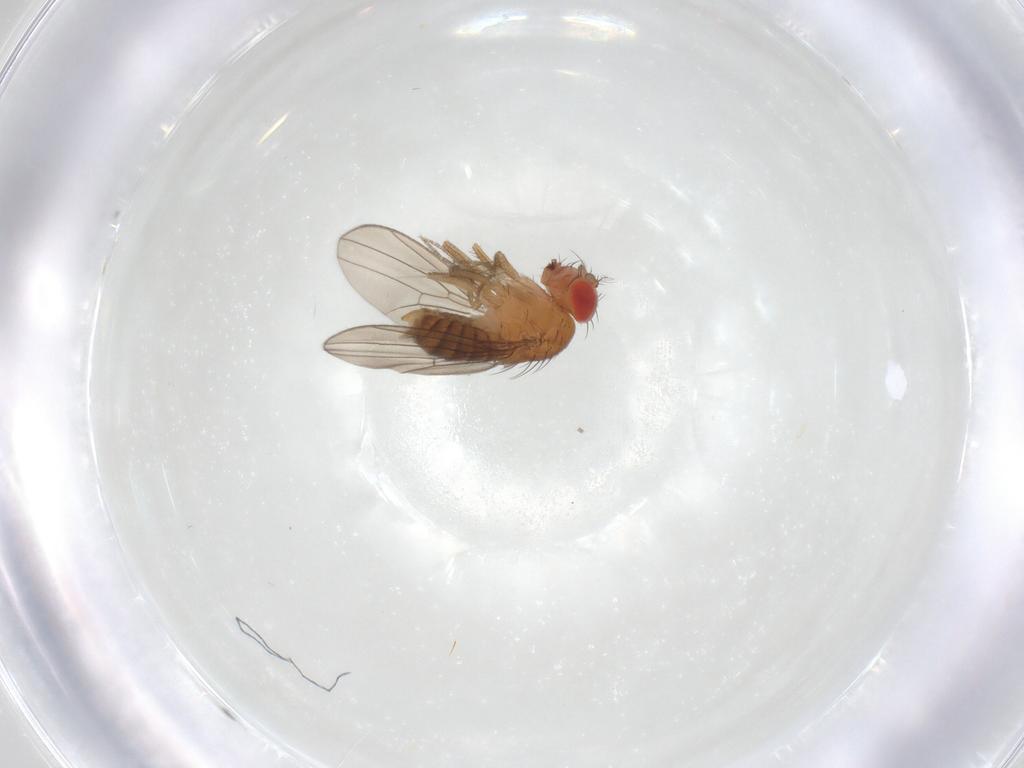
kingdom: Animalia
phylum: Arthropoda
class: Insecta
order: Diptera
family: Drosophilidae
